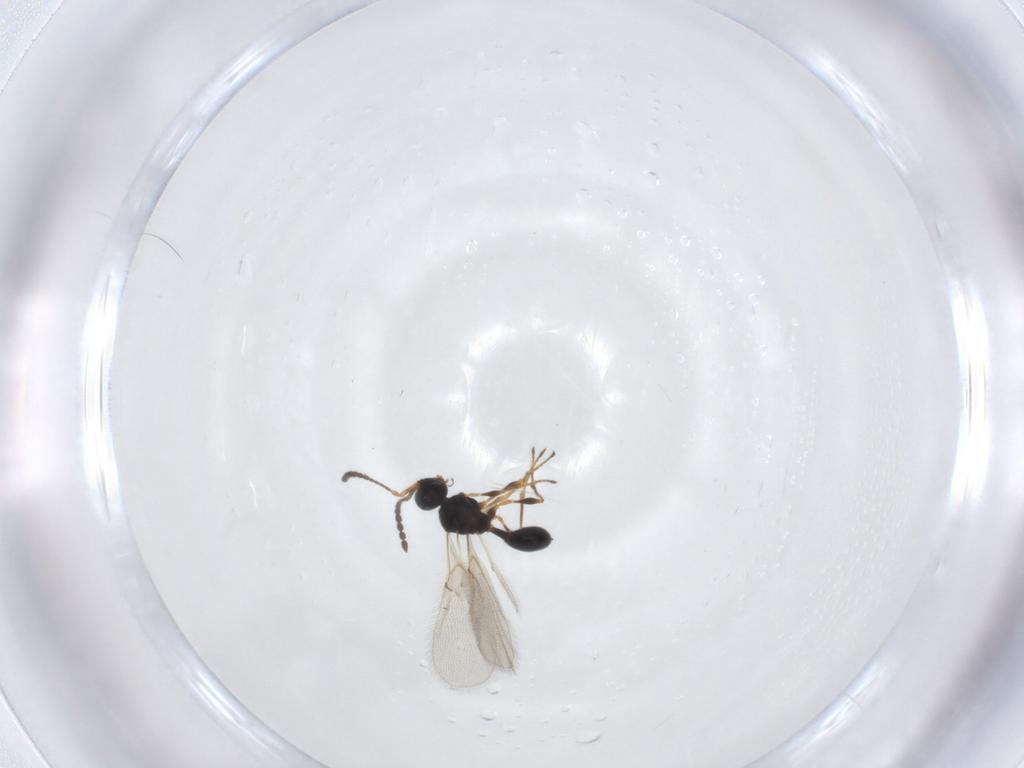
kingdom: Animalia
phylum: Arthropoda
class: Insecta
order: Hymenoptera
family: Diapriidae
